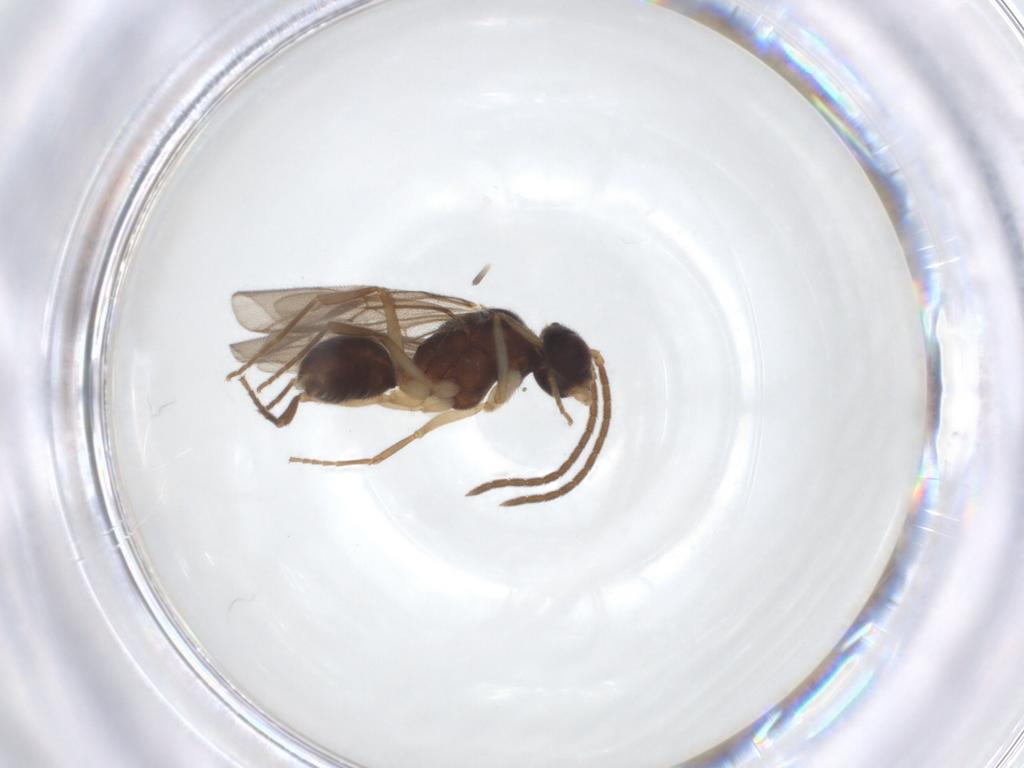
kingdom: Animalia
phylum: Arthropoda
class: Insecta
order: Hymenoptera
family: Formicidae
